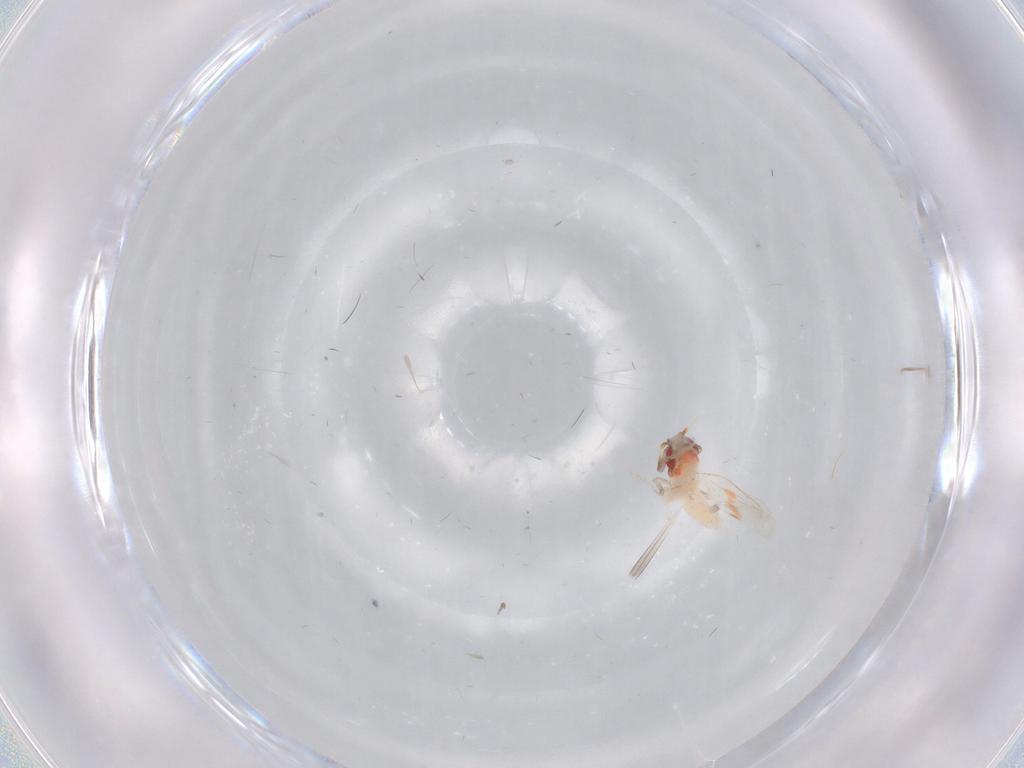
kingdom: Animalia
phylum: Arthropoda
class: Insecta
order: Hemiptera
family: Aleyrodidae
